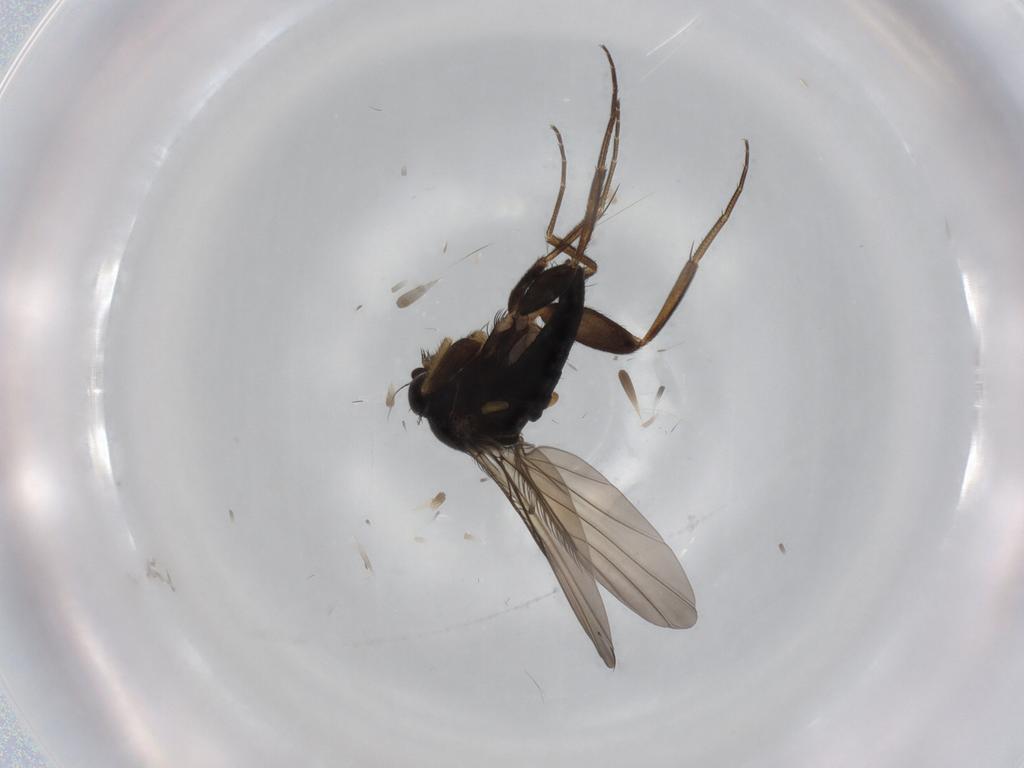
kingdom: Animalia
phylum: Arthropoda
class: Insecta
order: Diptera
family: Phoridae
